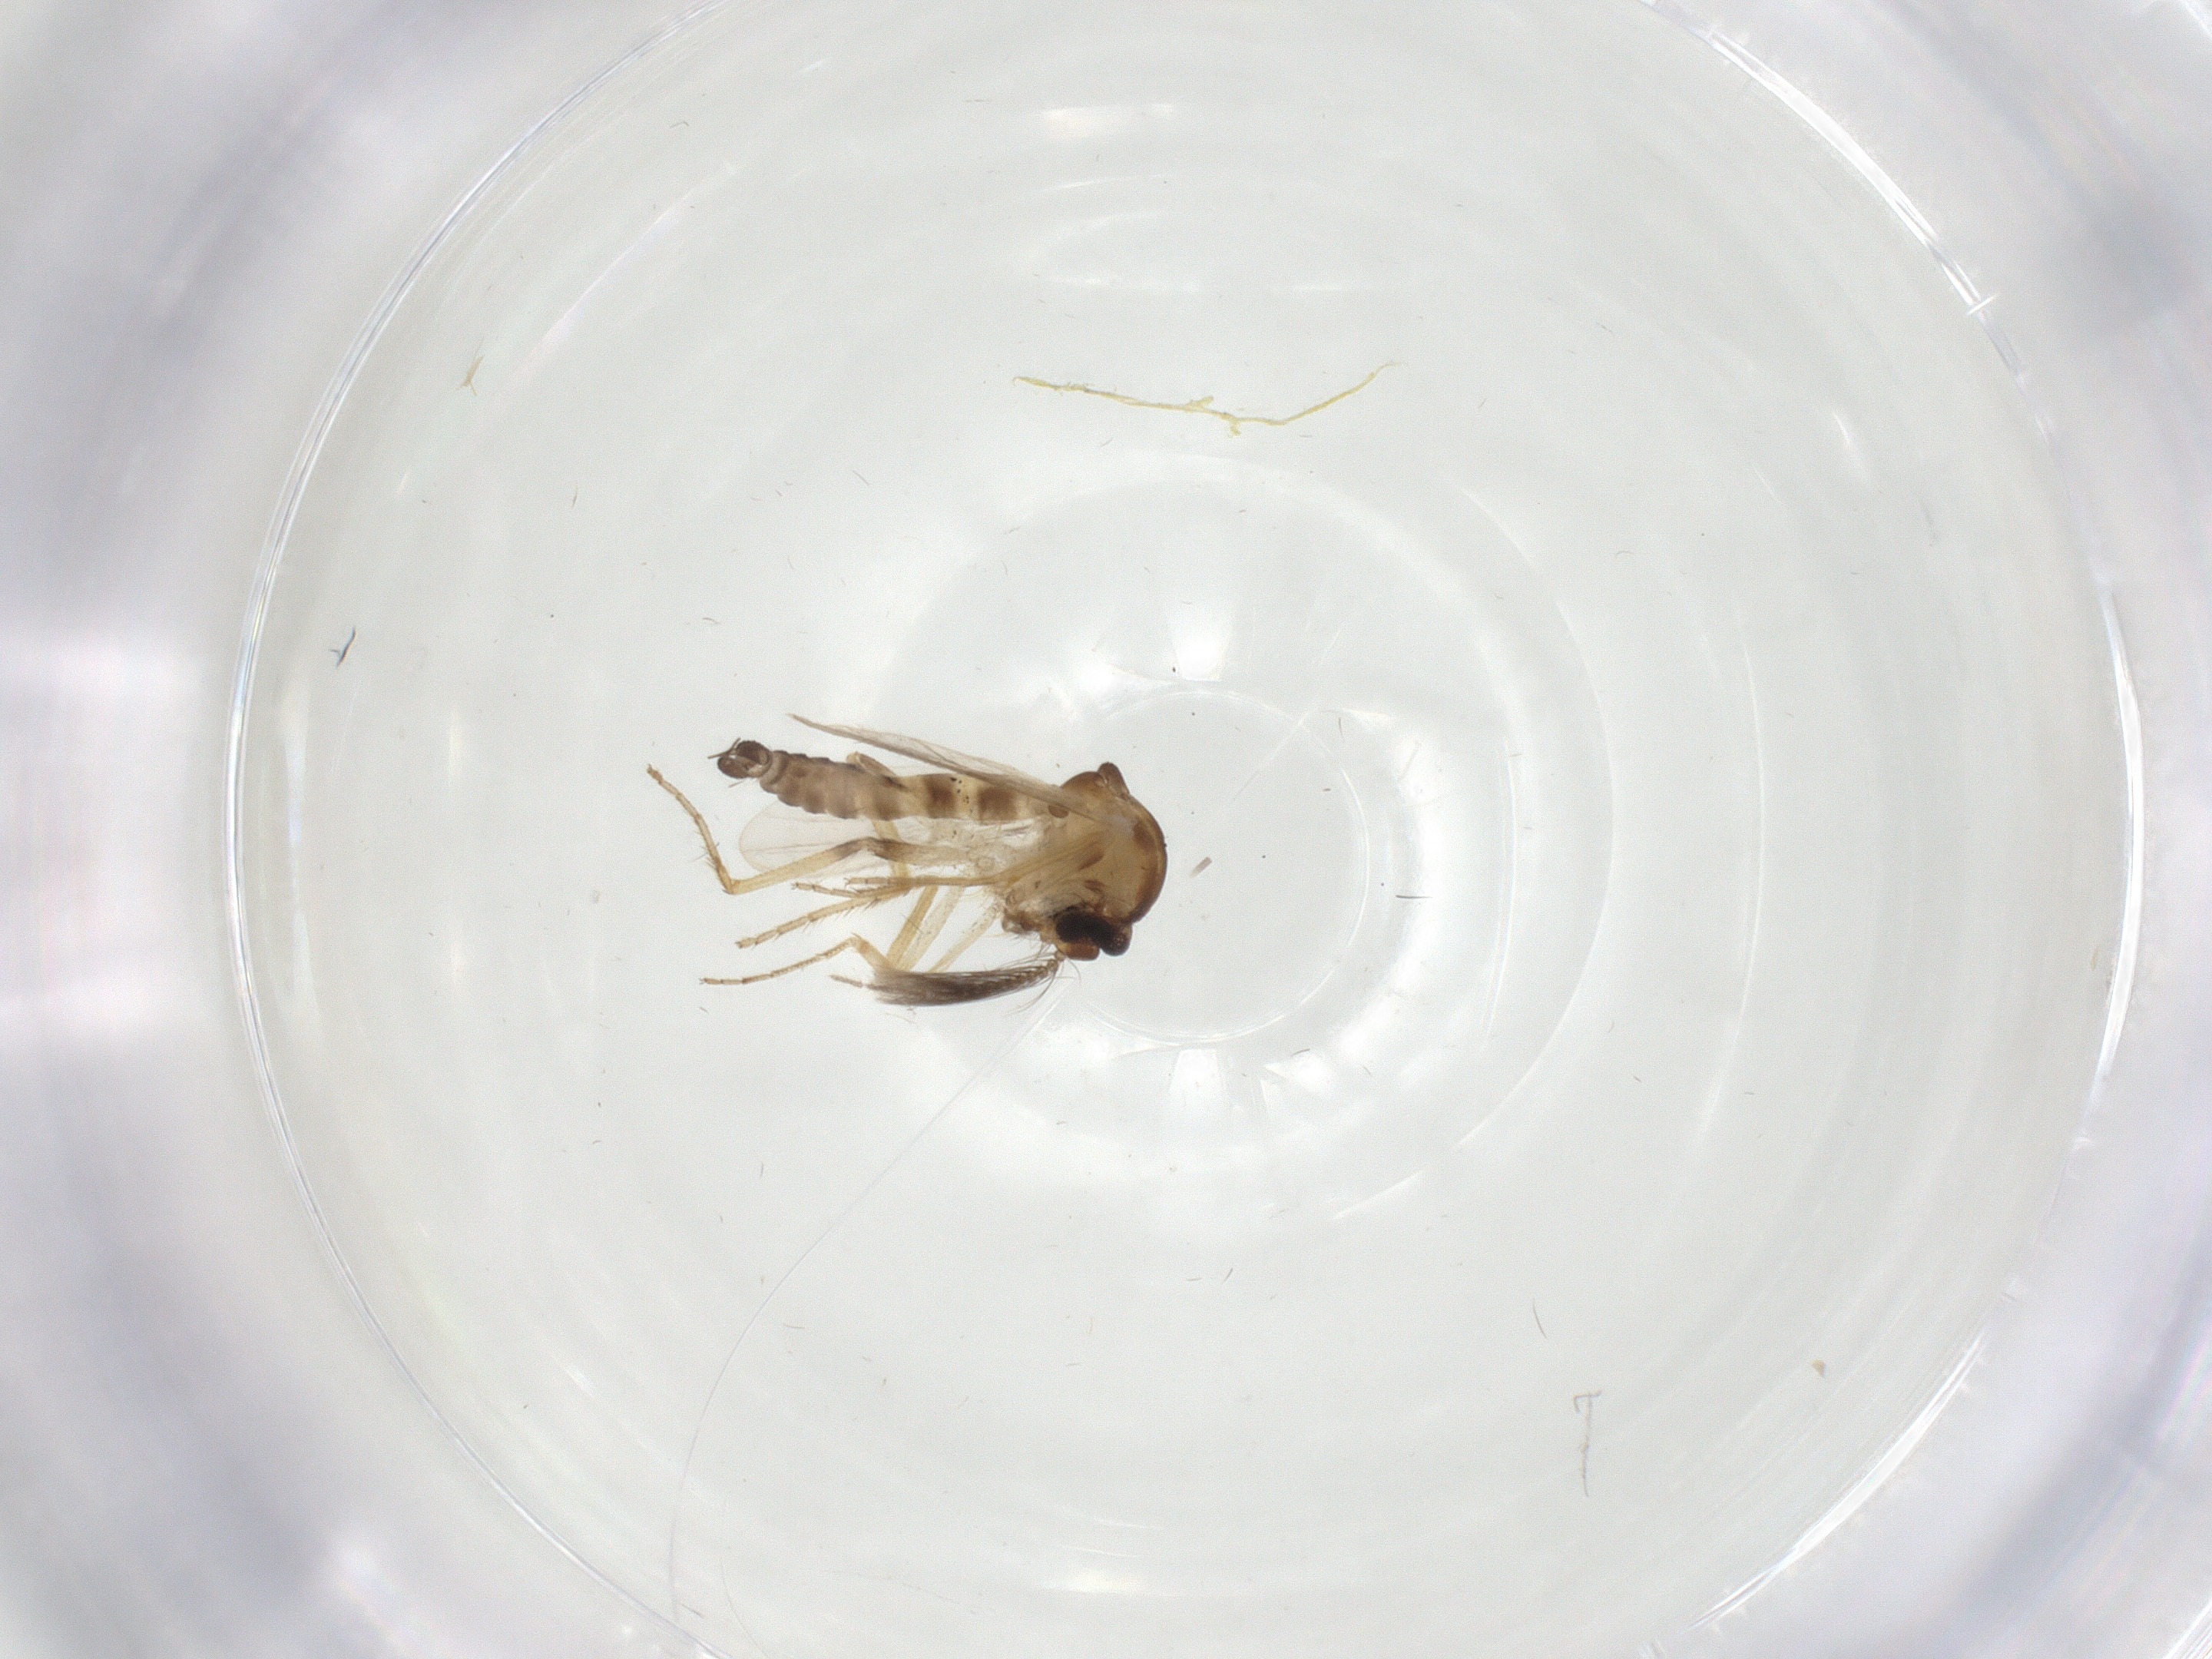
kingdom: Animalia
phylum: Arthropoda
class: Insecta
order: Diptera
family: Ceratopogonidae
